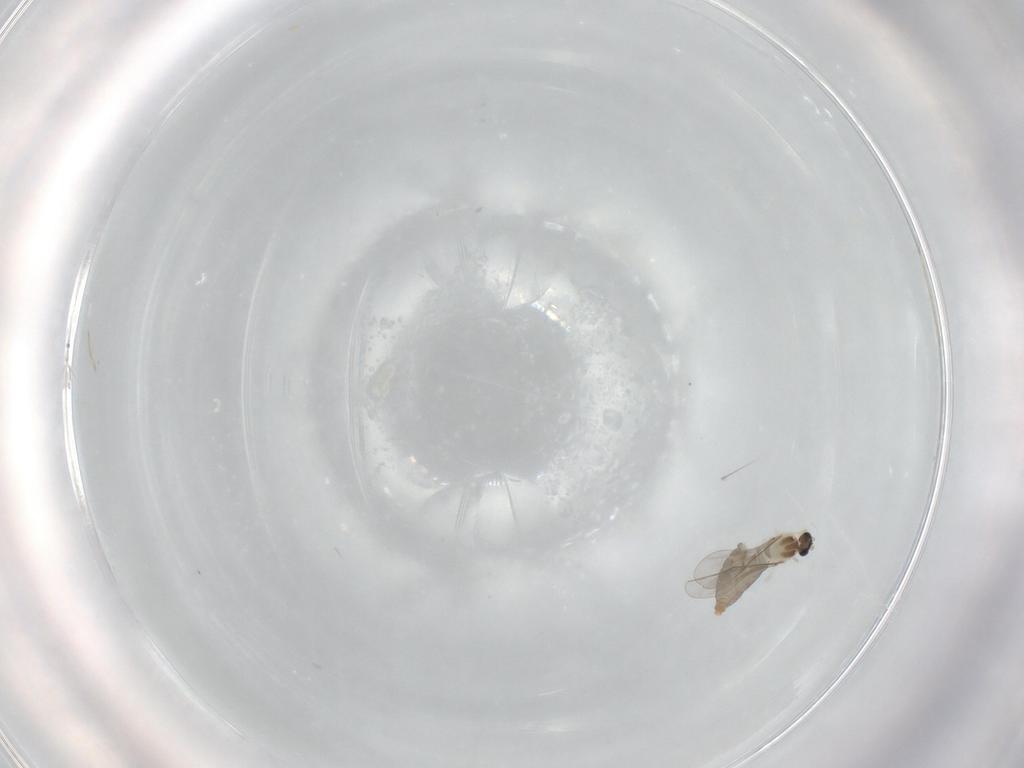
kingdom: Animalia
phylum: Arthropoda
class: Insecta
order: Diptera
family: Cecidomyiidae
